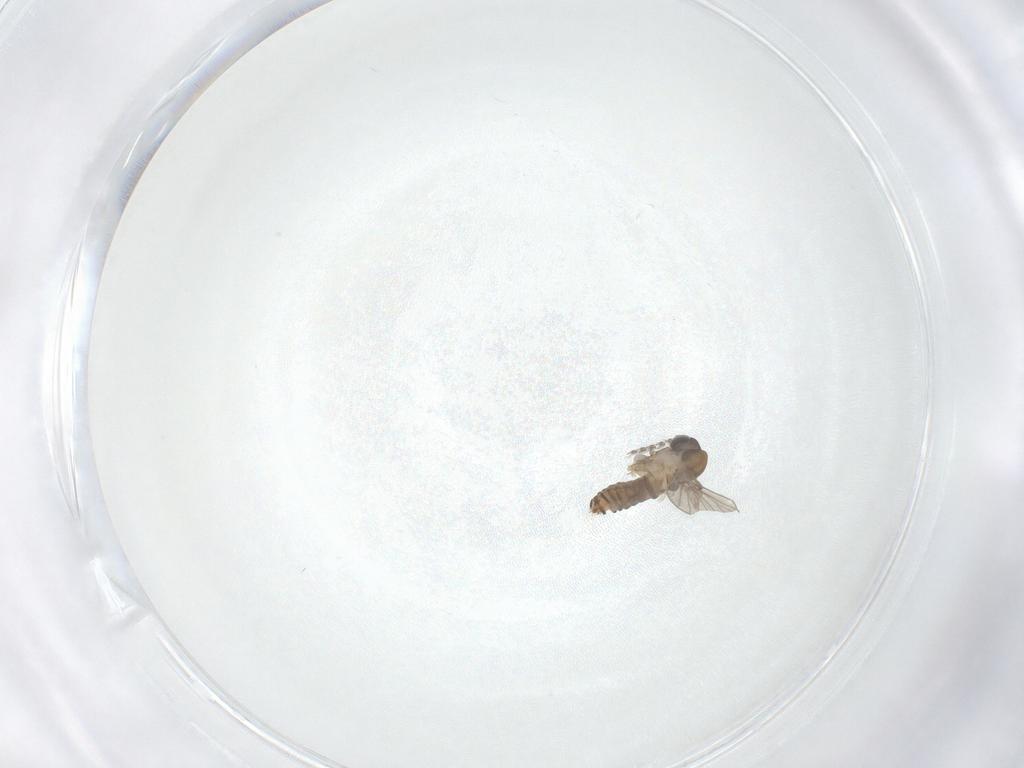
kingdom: Animalia
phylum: Arthropoda
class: Insecta
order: Diptera
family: Psychodidae
